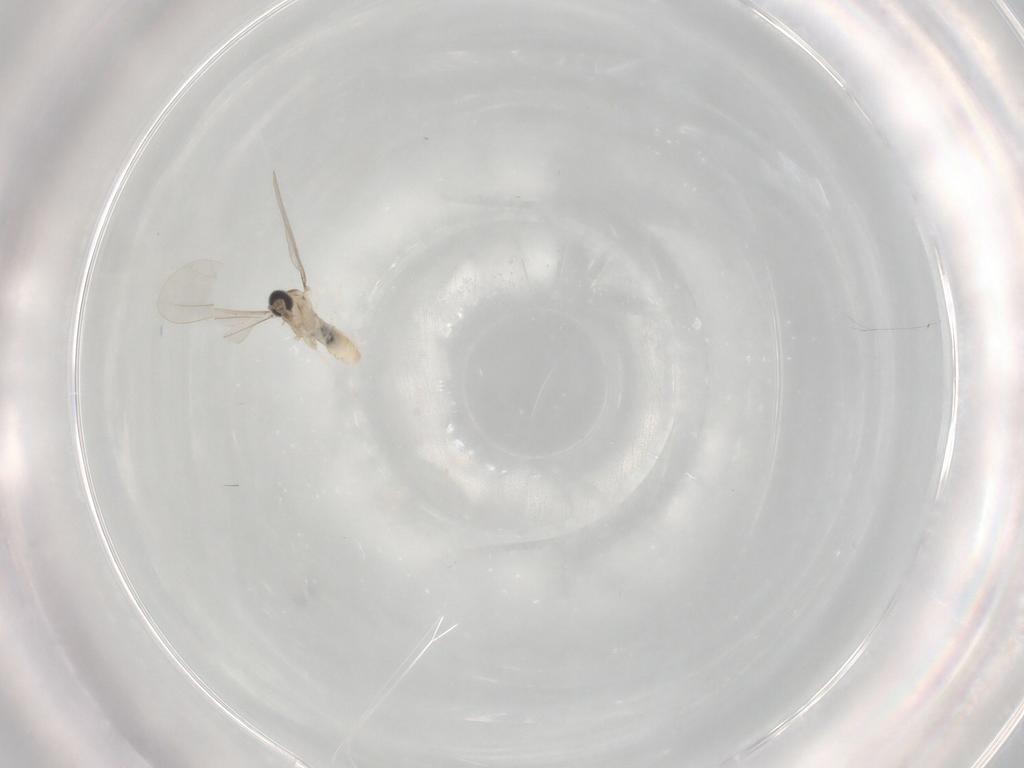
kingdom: Animalia
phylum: Arthropoda
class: Insecta
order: Diptera
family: Cecidomyiidae
